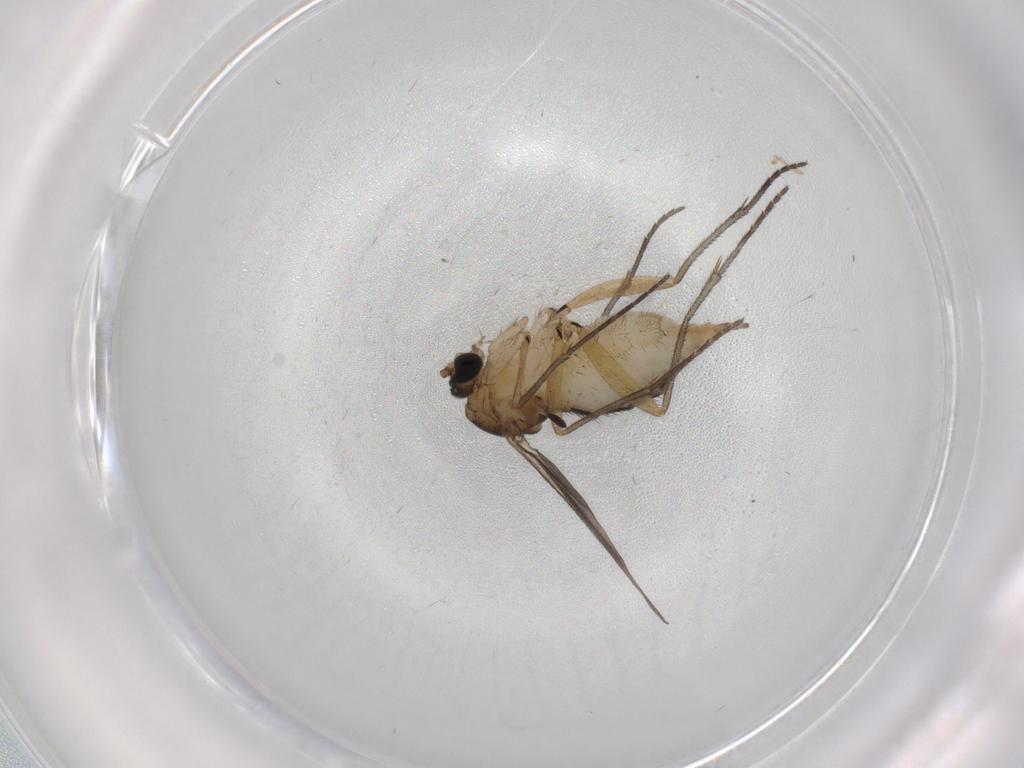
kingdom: Animalia
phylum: Arthropoda
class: Insecta
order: Diptera
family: Sciaridae
